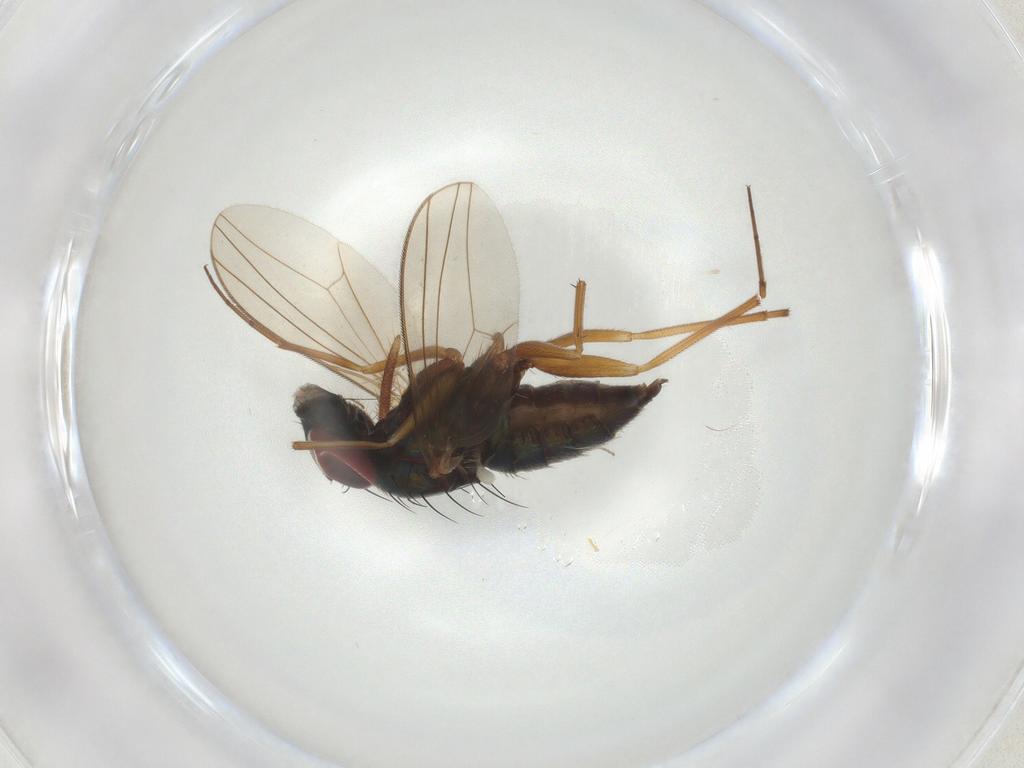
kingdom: Animalia
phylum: Arthropoda
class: Insecta
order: Diptera
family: Dolichopodidae
